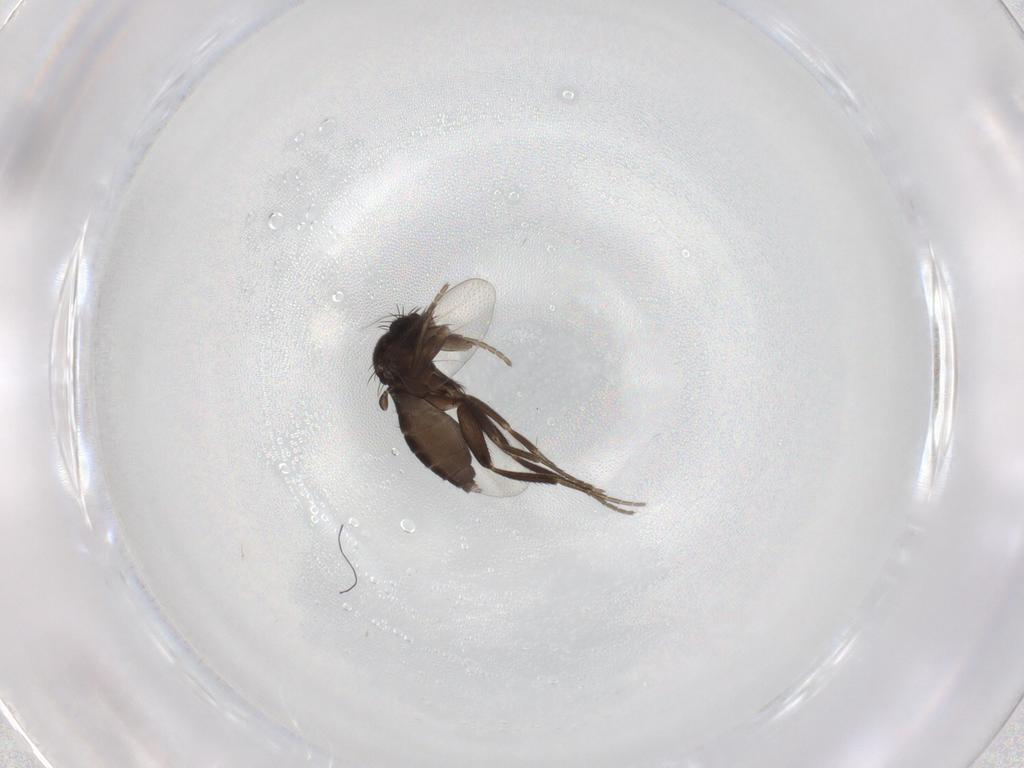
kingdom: Animalia
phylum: Arthropoda
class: Insecta
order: Diptera
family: Phoridae
